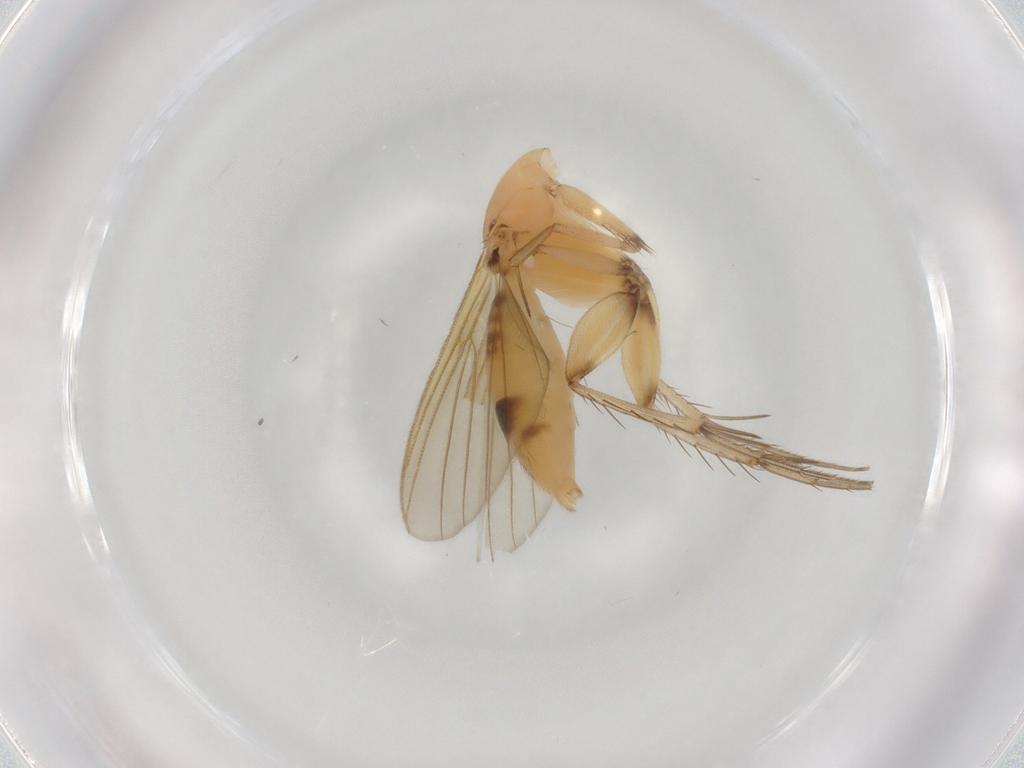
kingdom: Animalia
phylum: Arthropoda
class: Insecta
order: Diptera
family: Mycetophilidae
